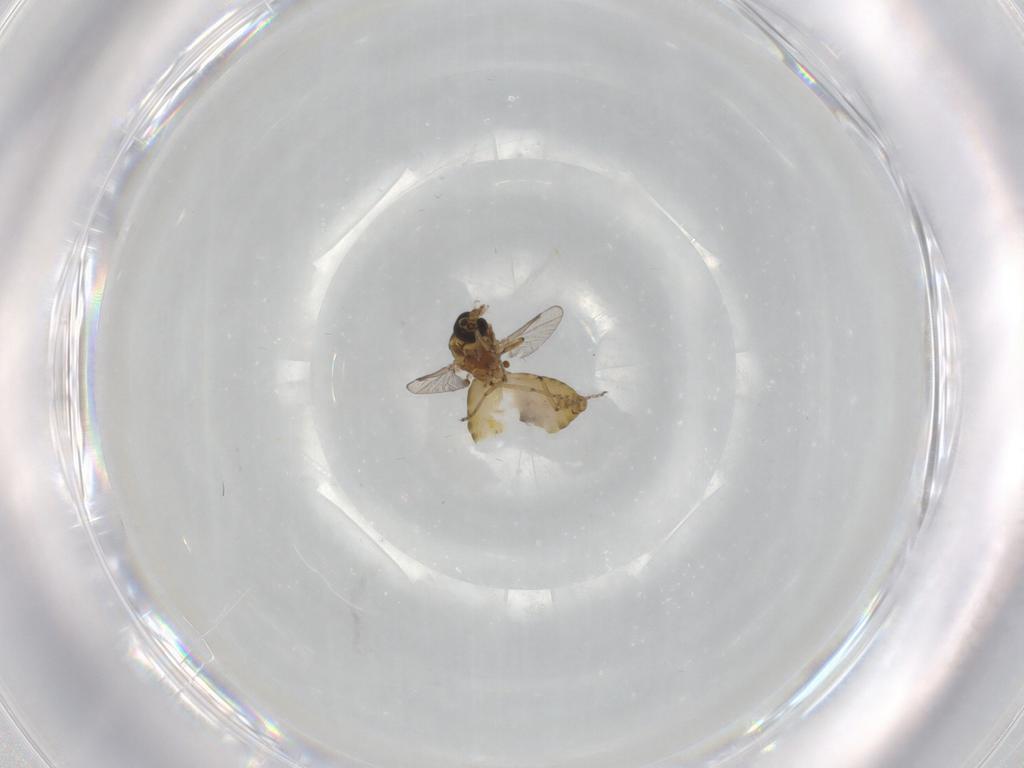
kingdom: Animalia
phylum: Arthropoda
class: Insecta
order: Diptera
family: Ceratopogonidae
